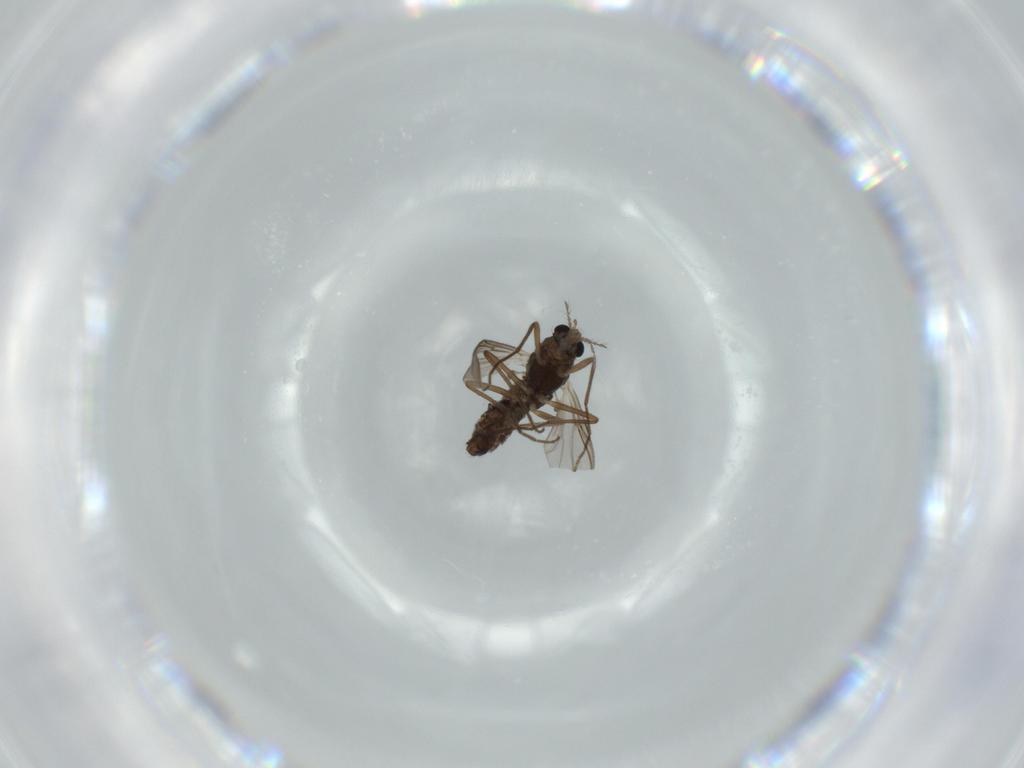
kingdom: Animalia
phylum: Arthropoda
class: Insecta
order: Diptera
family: Chironomidae
